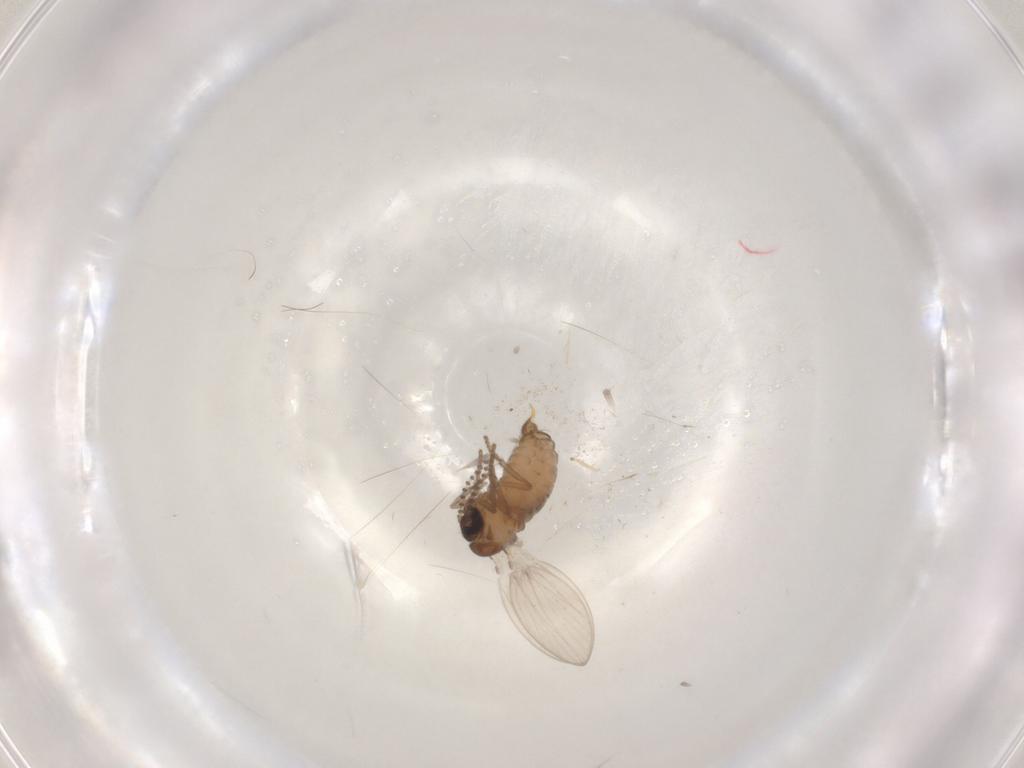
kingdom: Animalia
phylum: Arthropoda
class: Insecta
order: Diptera
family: Psychodidae
